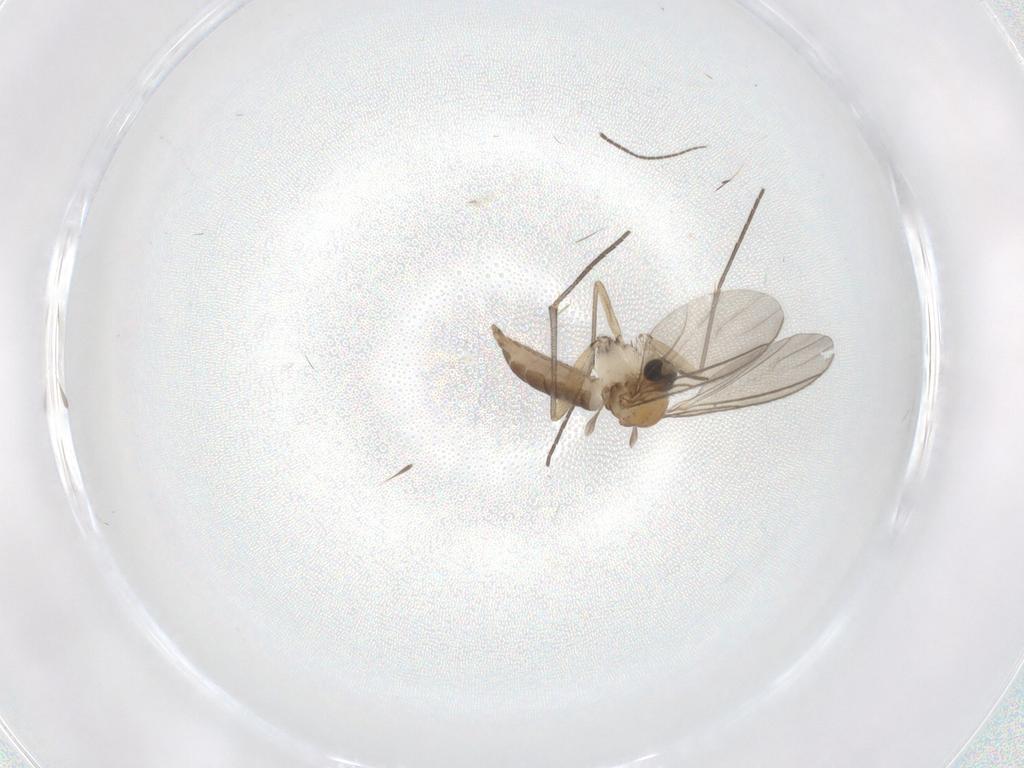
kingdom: Animalia
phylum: Arthropoda
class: Insecta
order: Diptera
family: Sciaridae
